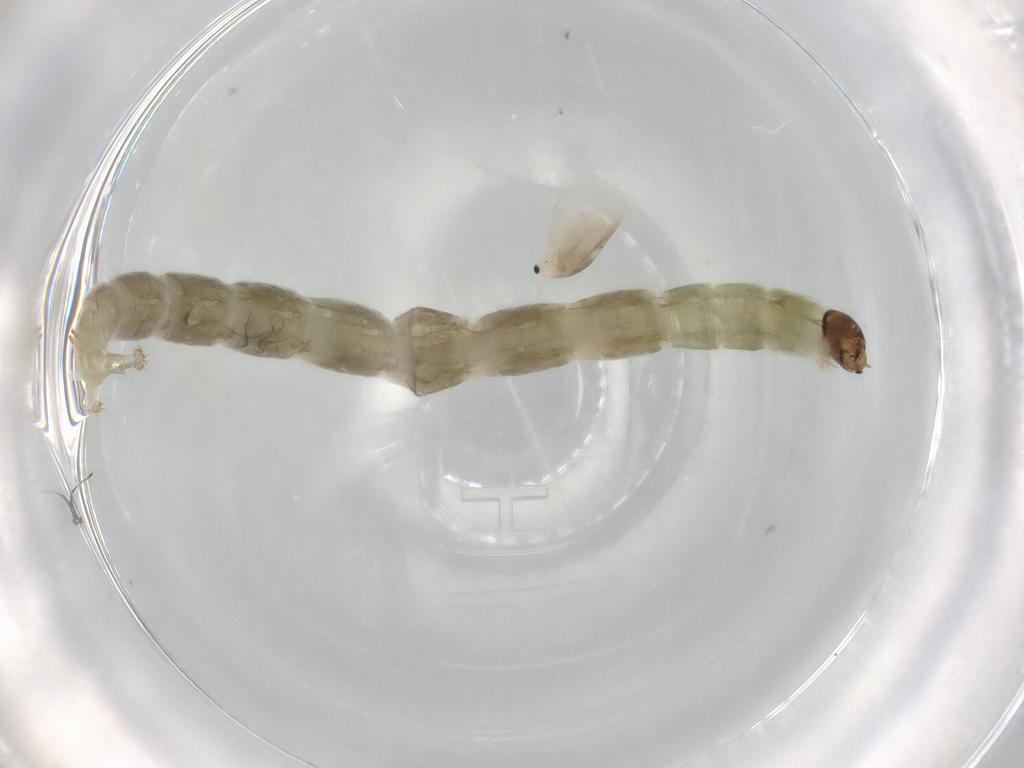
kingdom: Animalia
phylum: Arthropoda
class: Insecta
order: Diptera
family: Chironomidae
